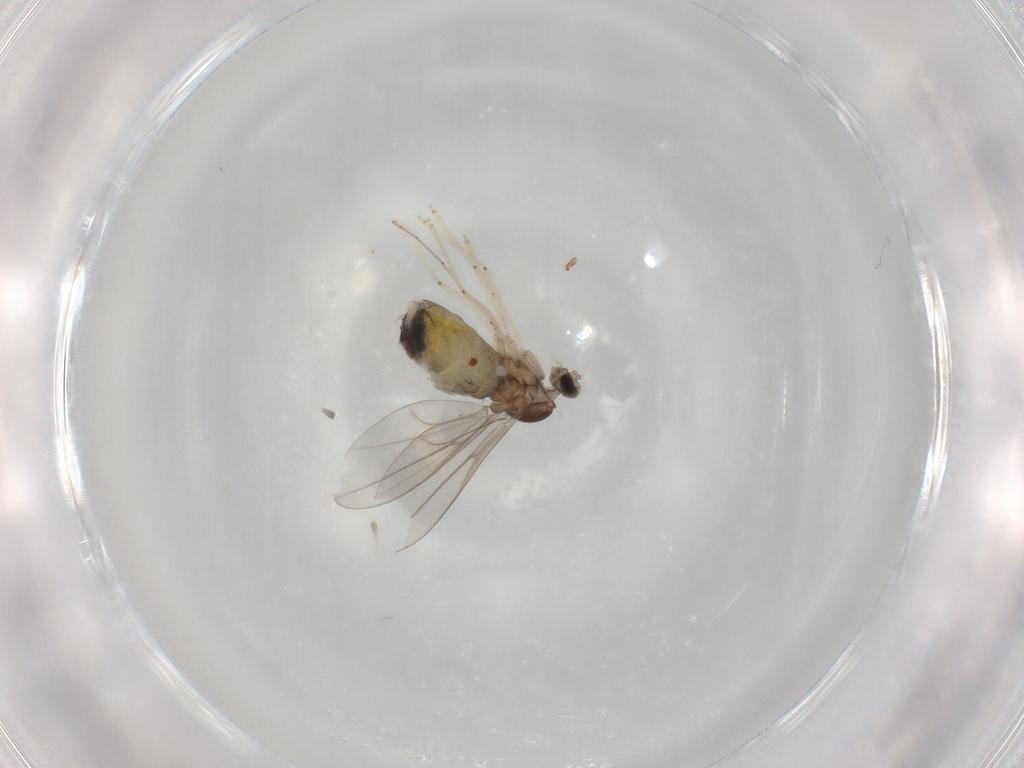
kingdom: Animalia
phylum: Arthropoda
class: Insecta
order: Diptera
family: Cecidomyiidae
